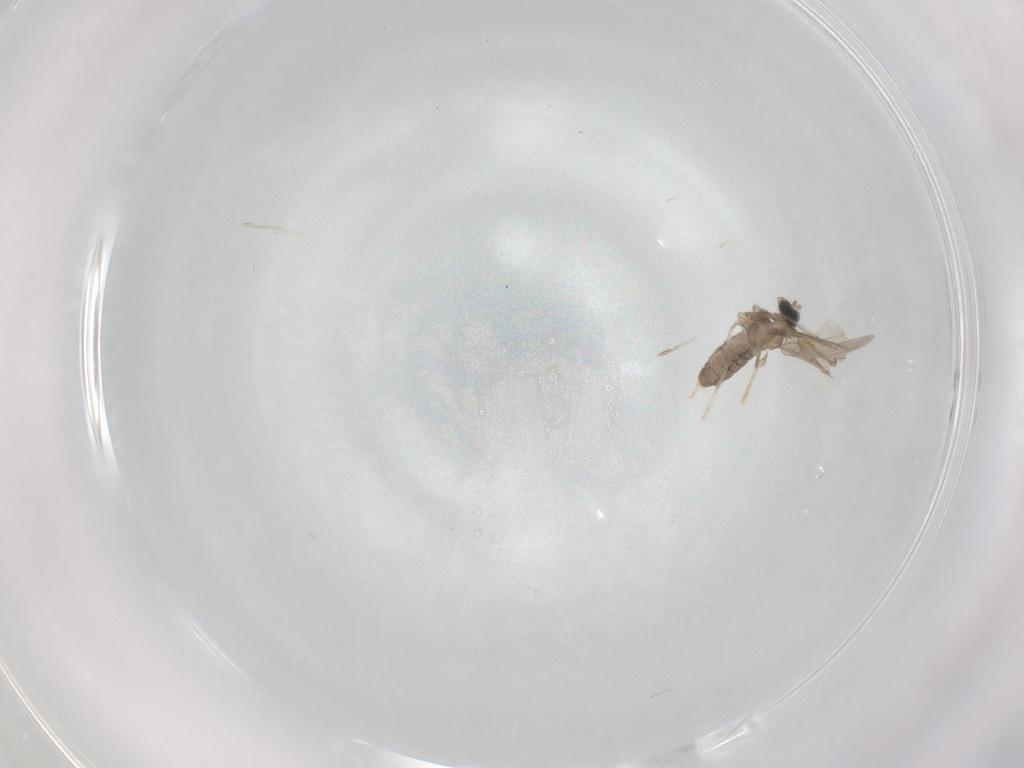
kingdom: Animalia
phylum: Arthropoda
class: Insecta
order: Diptera
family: Cecidomyiidae
